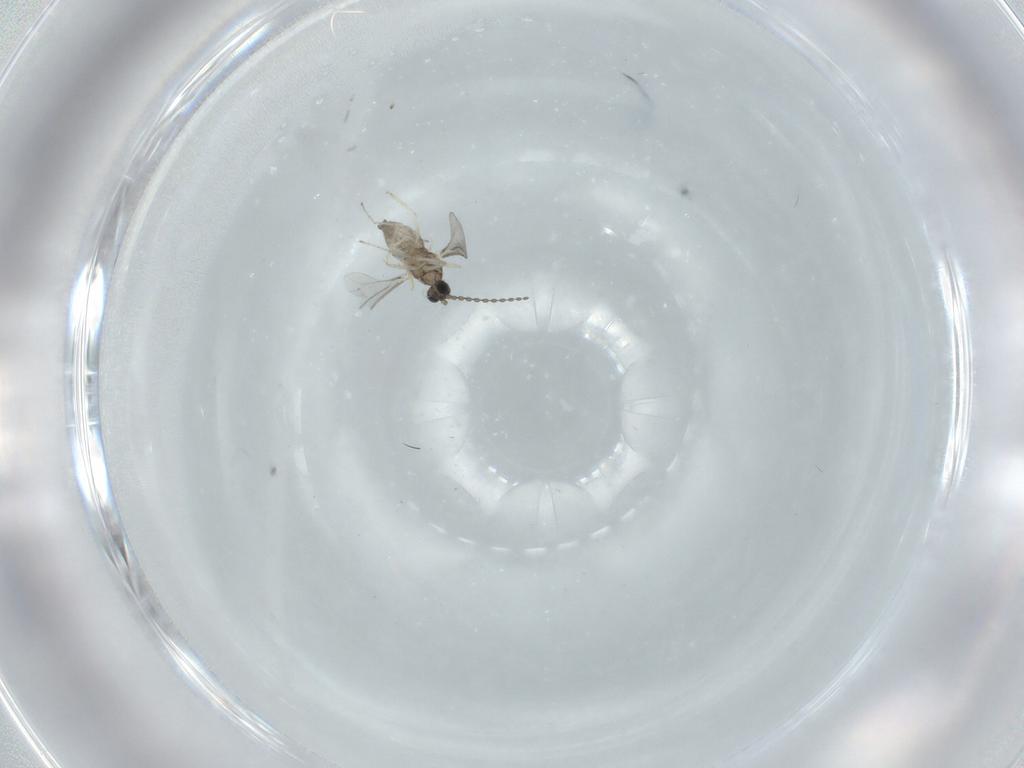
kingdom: Animalia
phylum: Arthropoda
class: Insecta
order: Diptera
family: Cecidomyiidae
